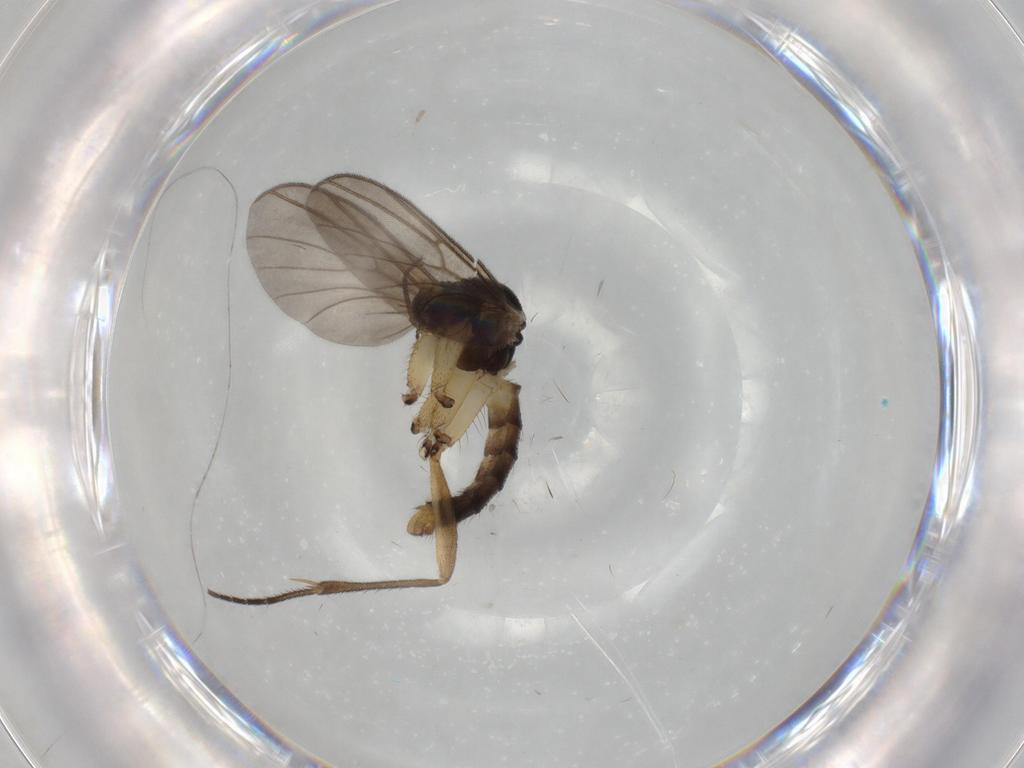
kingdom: Animalia
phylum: Arthropoda
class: Insecta
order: Diptera
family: Sciaridae
